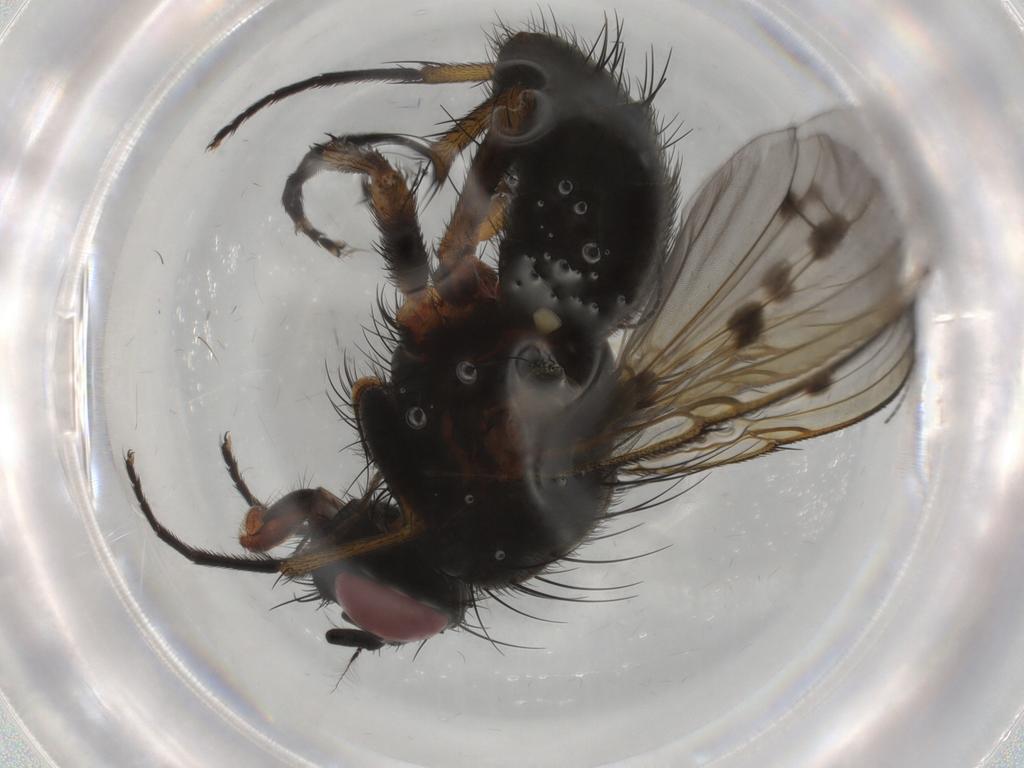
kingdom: Animalia
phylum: Arthropoda
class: Insecta
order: Diptera
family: Muscidae
